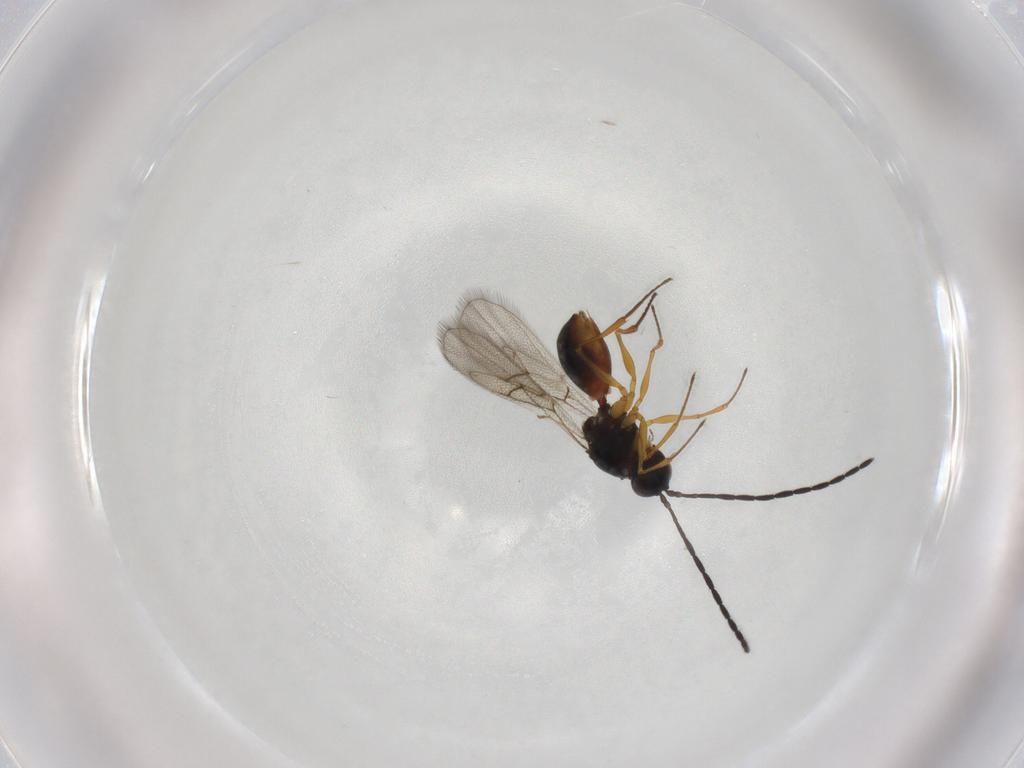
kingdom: Animalia
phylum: Arthropoda
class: Insecta
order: Hymenoptera
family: Figitidae
